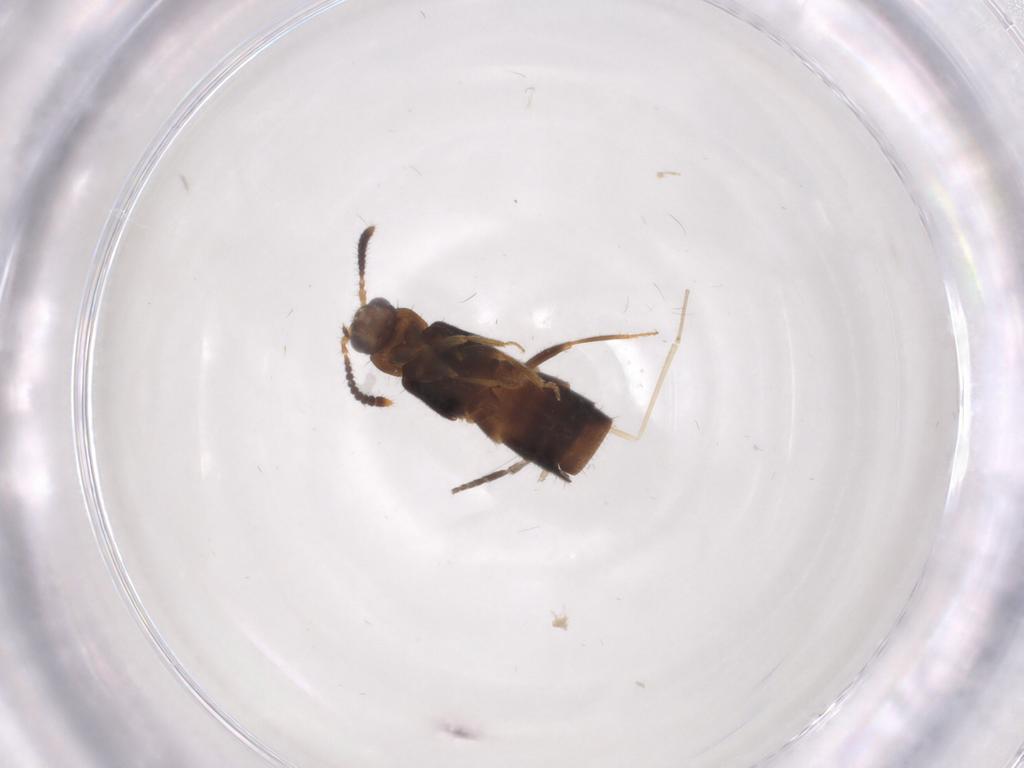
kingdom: Animalia
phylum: Arthropoda
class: Insecta
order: Coleoptera
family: Staphylinidae
